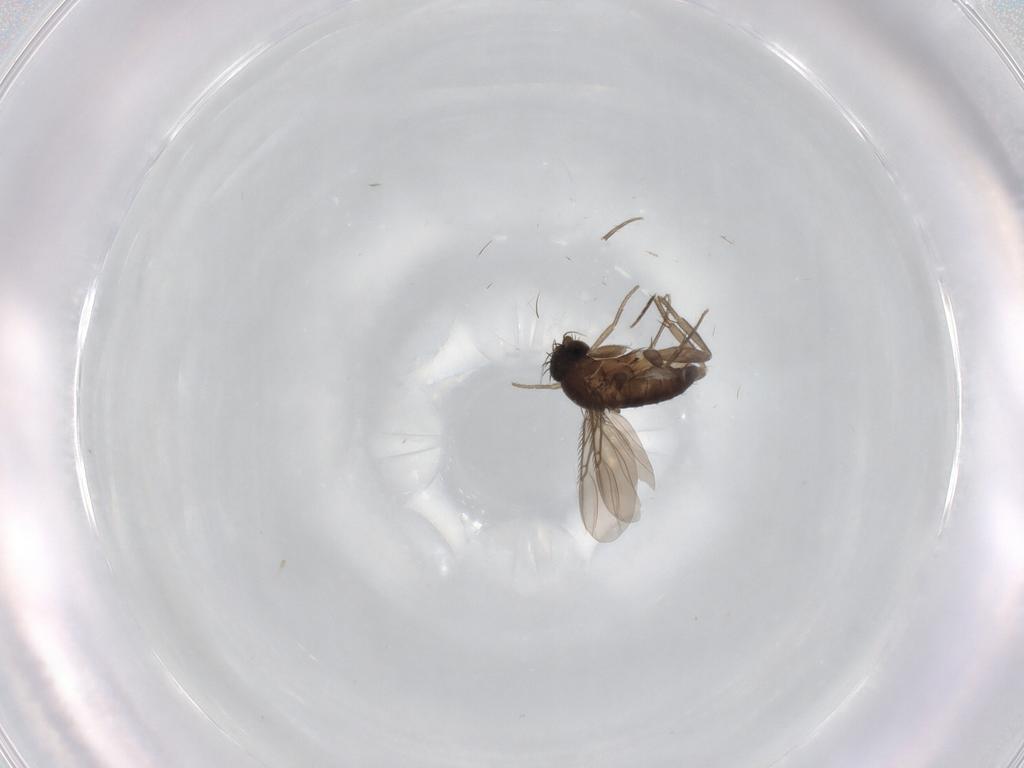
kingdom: Animalia
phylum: Arthropoda
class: Insecta
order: Diptera
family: Phoridae
